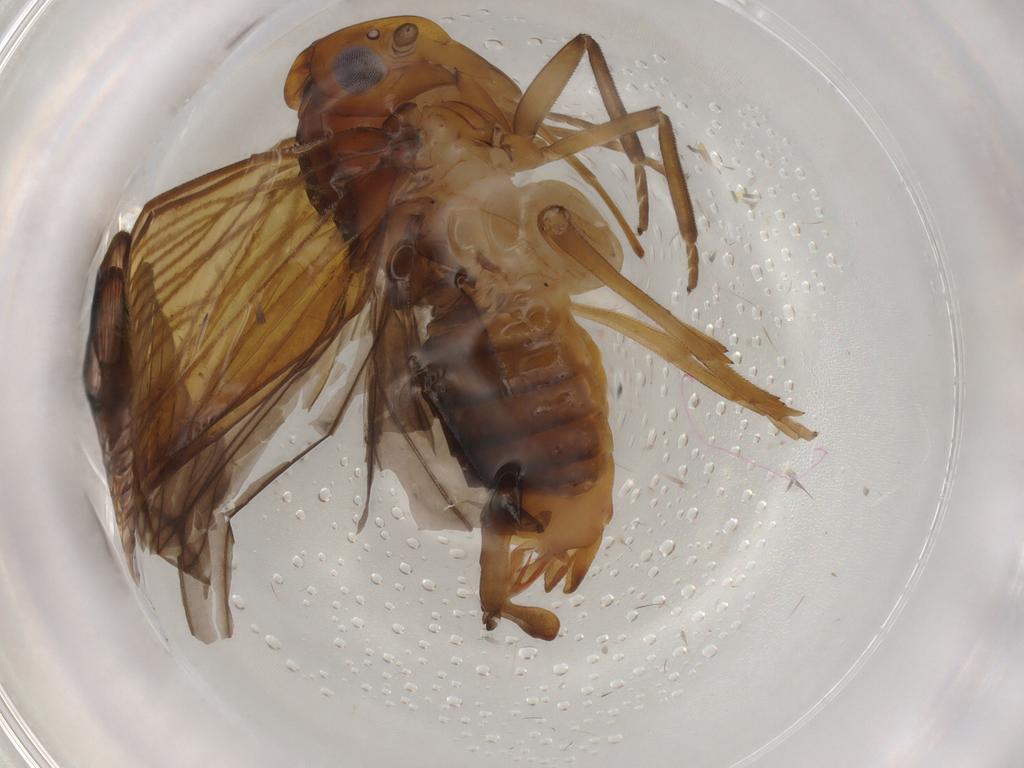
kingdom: Animalia
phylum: Arthropoda
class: Insecta
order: Hemiptera
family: Cixiidae
